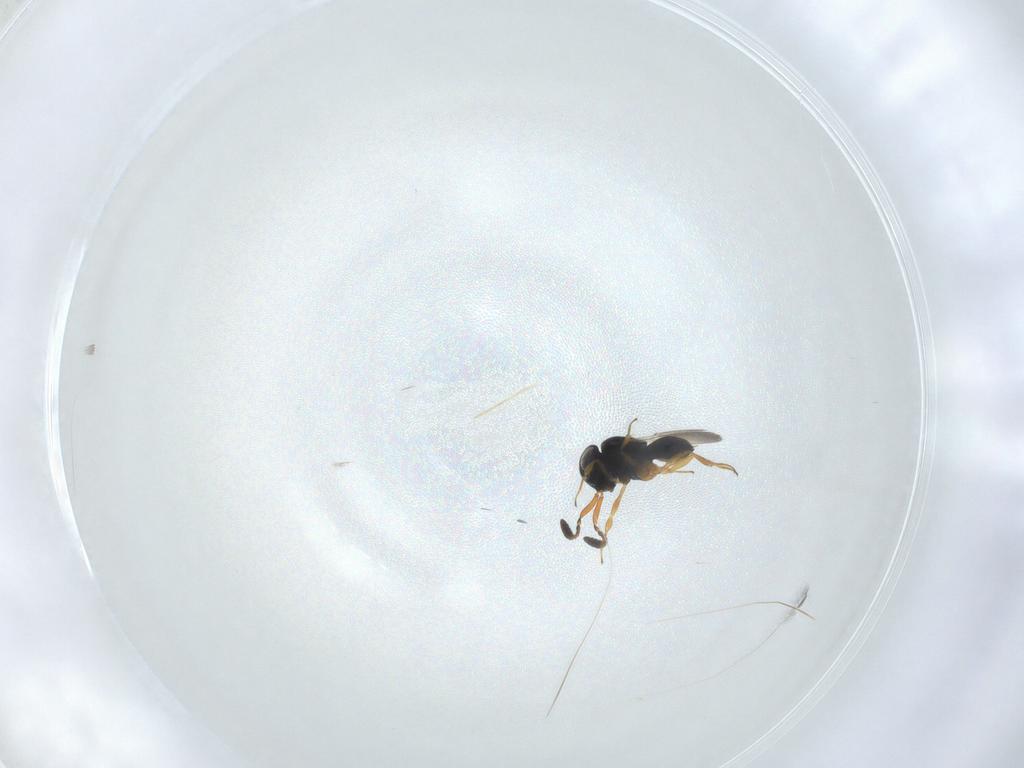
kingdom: Animalia
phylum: Arthropoda
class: Insecta
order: Hymenoptera
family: Scelionidae
